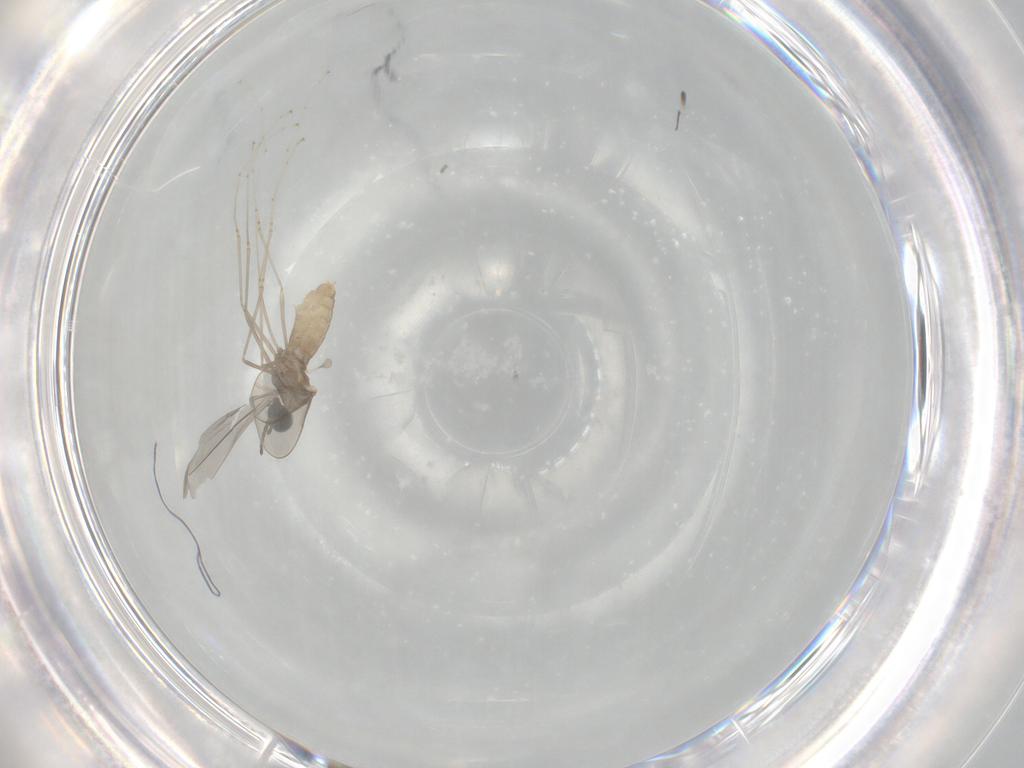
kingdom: Animalia
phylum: Arthropoda
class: Insecta
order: Diptera
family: Cecidomyiidae
